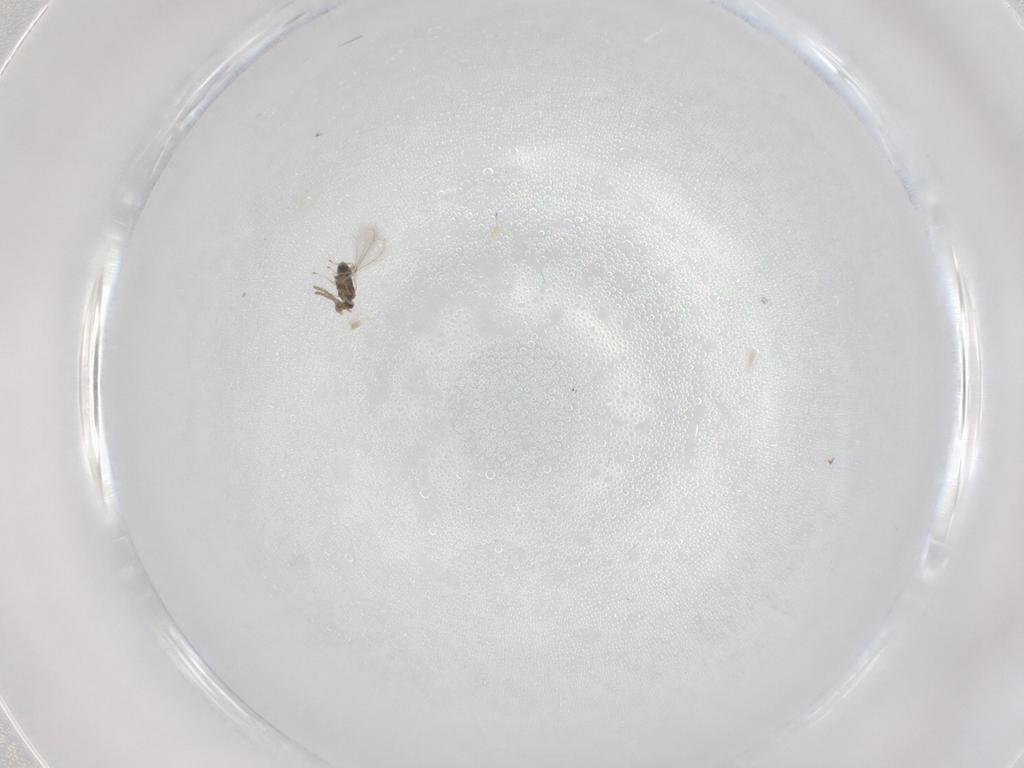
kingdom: Animalia
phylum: Arthropoda
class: Insecta
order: Hymenoptera
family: Mymaridae
